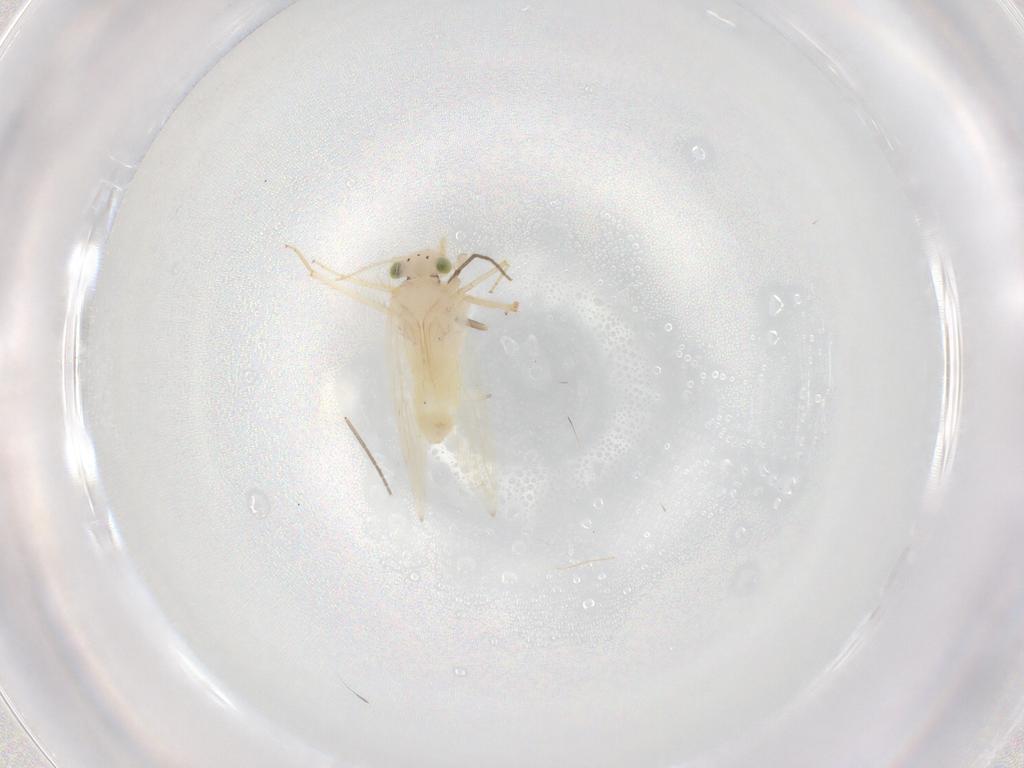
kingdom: Animalia
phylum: Arthropoda
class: Insecta
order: Psocodea
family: Lepidopsocidae
